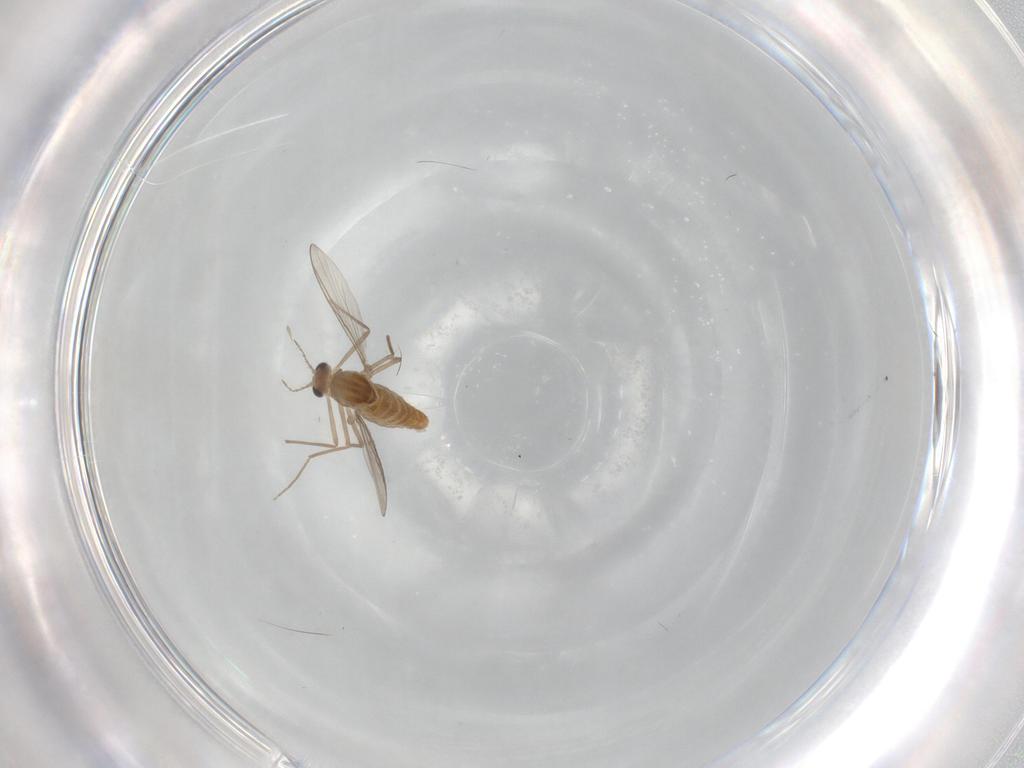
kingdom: Animalia
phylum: Arthropoda
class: Insecta
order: Diptera
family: Chironomidae
